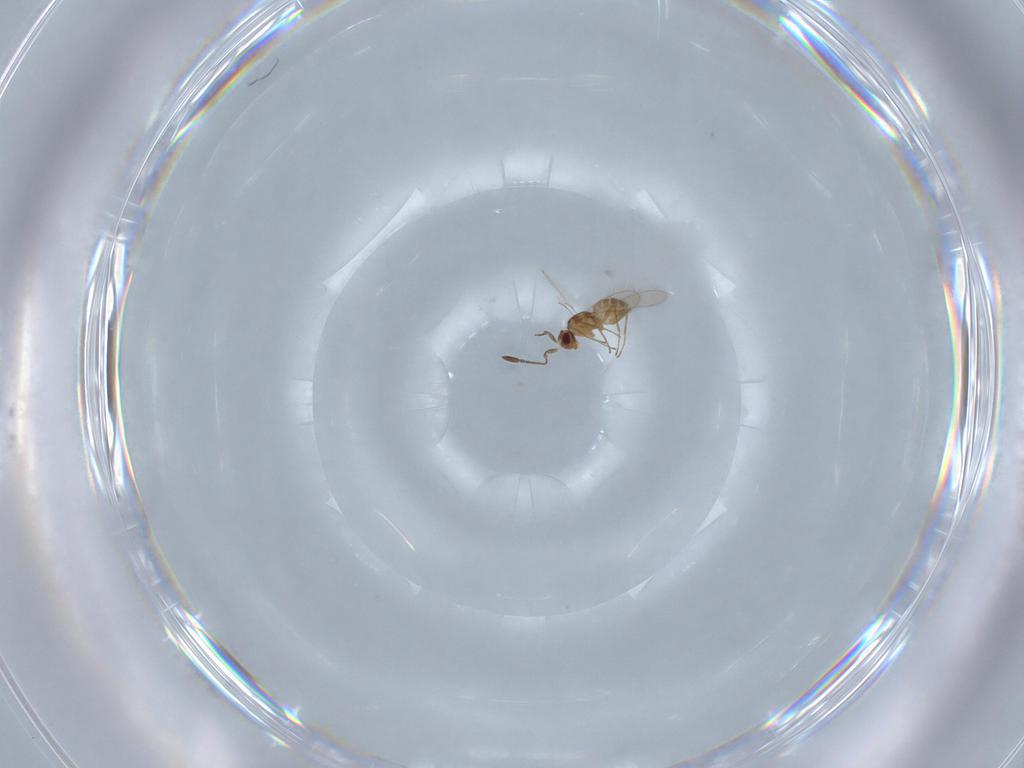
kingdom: Animalia
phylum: Arthropoda
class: Insecta
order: Hymenoptera
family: Mymaridae
